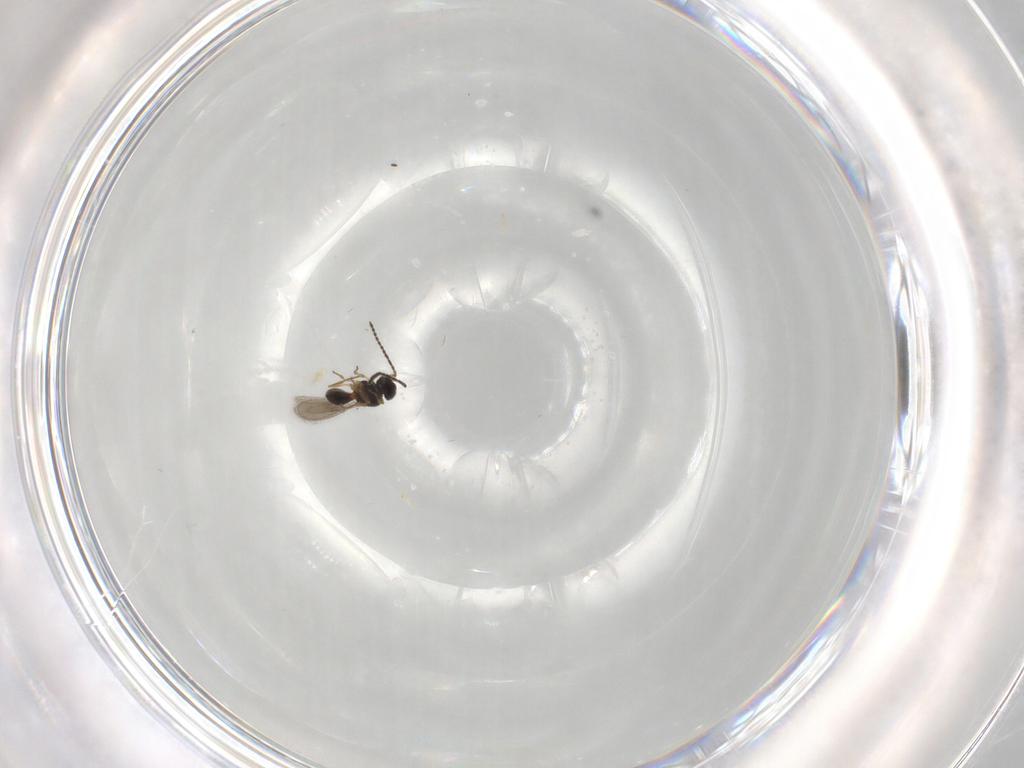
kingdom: Animalia
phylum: Arthropoda
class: Insecta
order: Hymenoptera
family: Scelionidae
